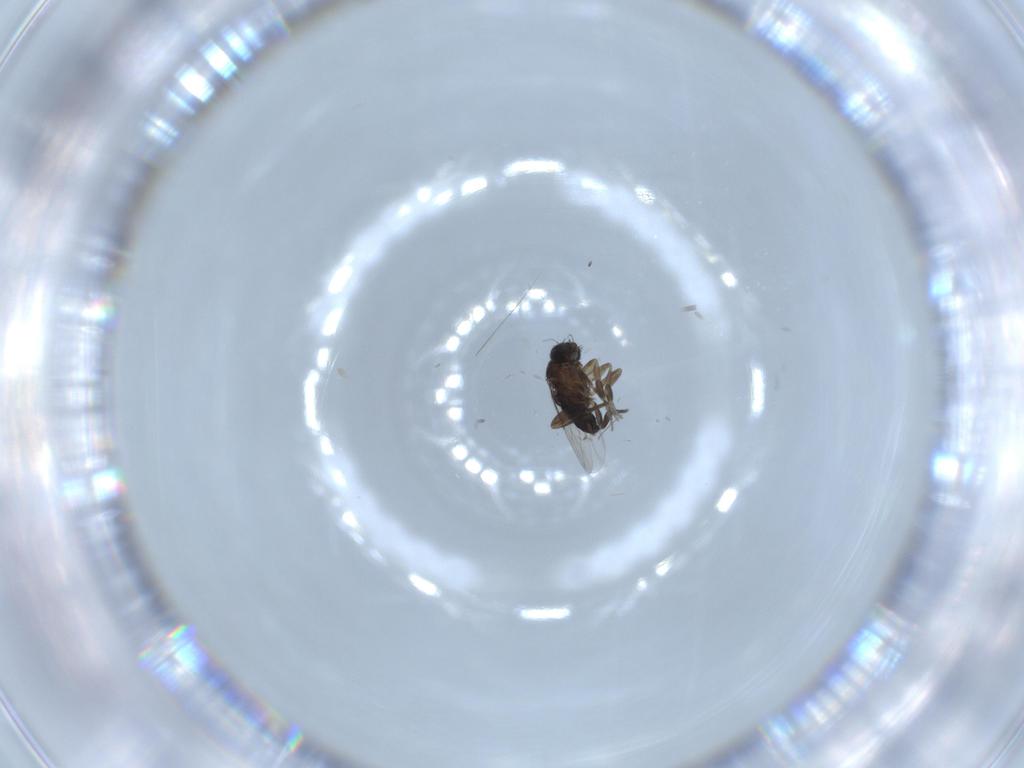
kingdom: Animalia
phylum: Arthropoda
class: Insecta
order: Diptera
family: Phoridae
